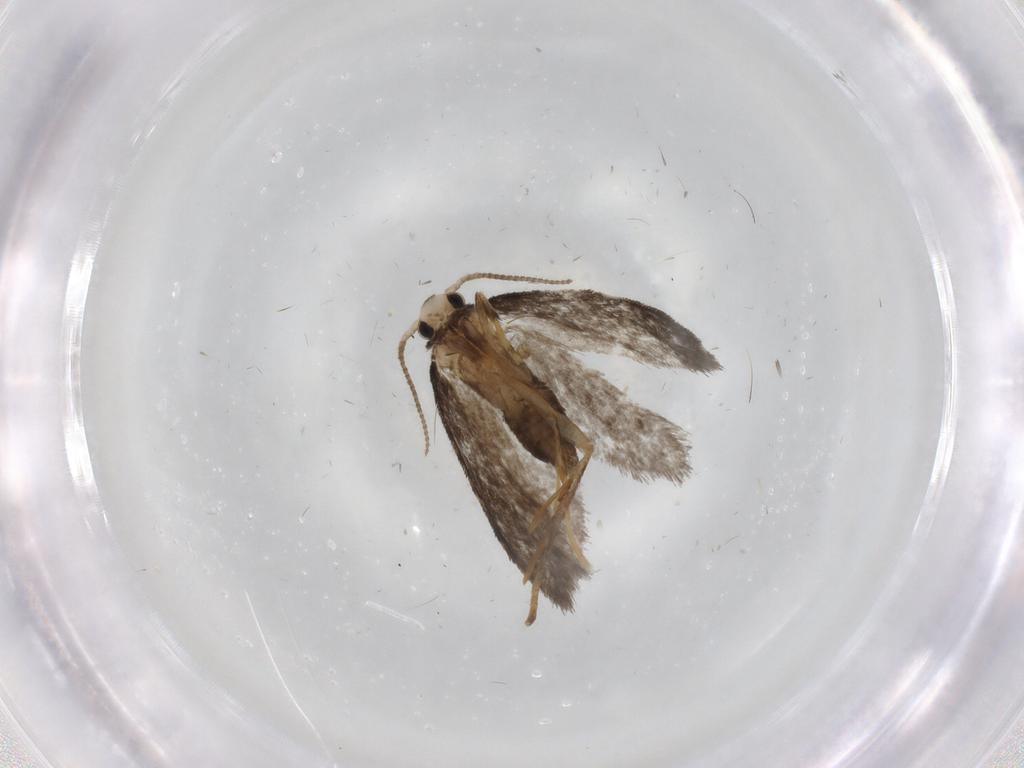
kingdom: Animalia
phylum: Arthropoda
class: Insecta
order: Lepidoptera
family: Psychidae
